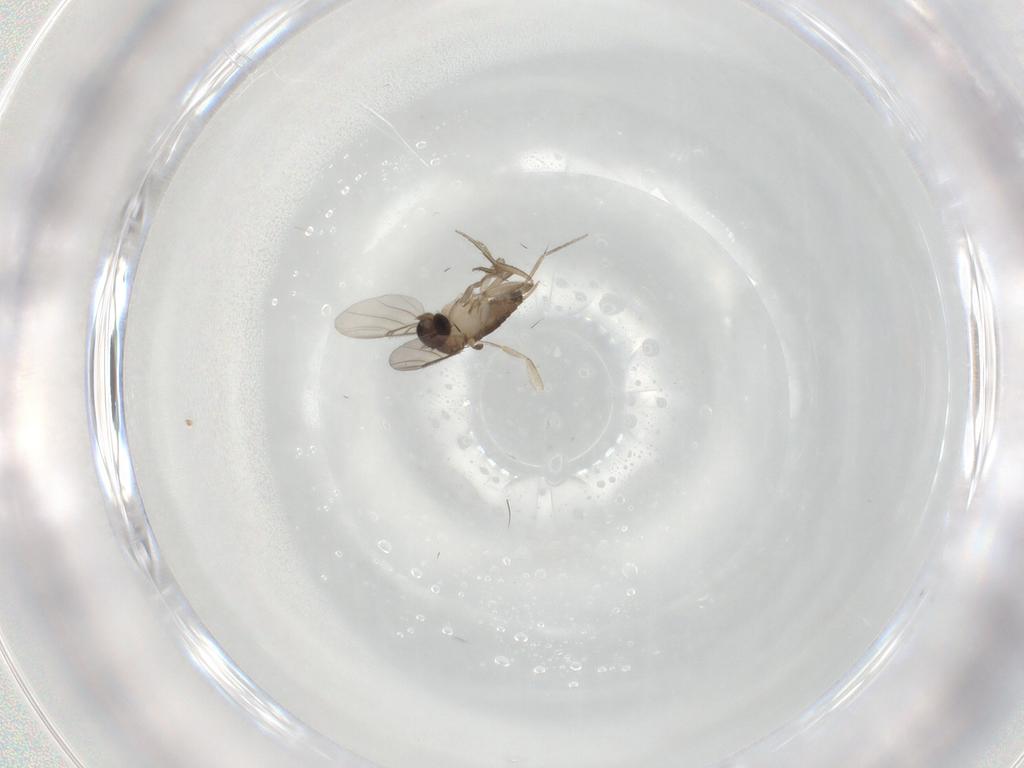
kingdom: Animalia
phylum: Arthropoda
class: Insecta
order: Diptera
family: Phoridae
